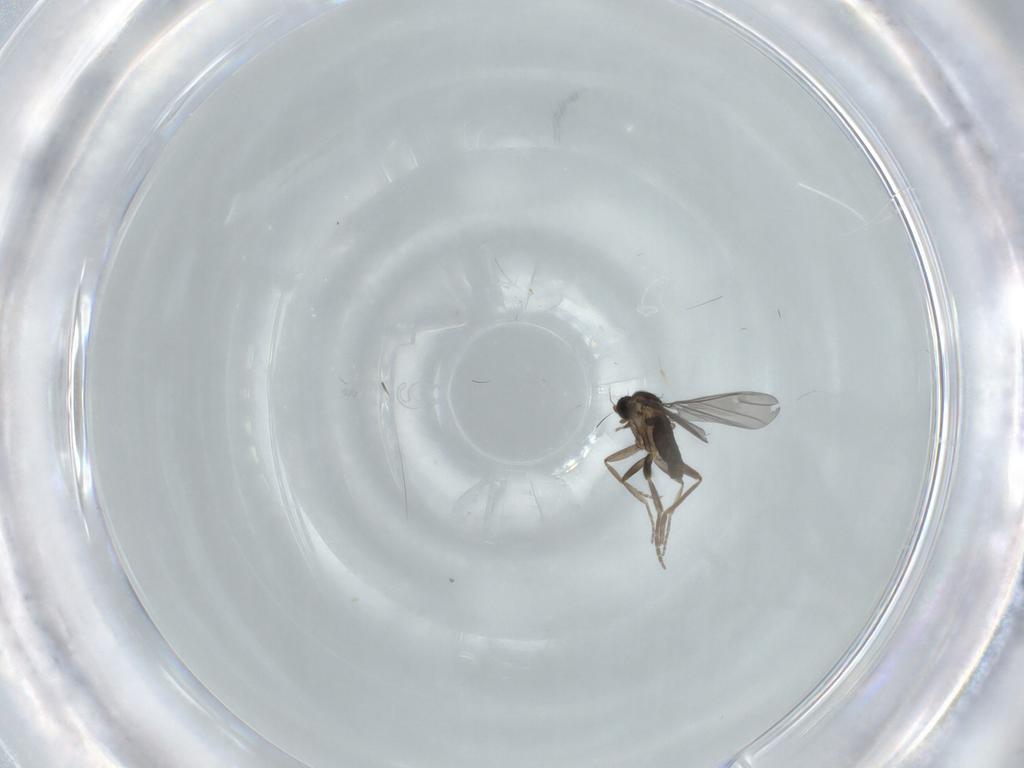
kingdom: Animalia
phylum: Arthropoda
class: Insecta
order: Diptera
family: Phoridae
